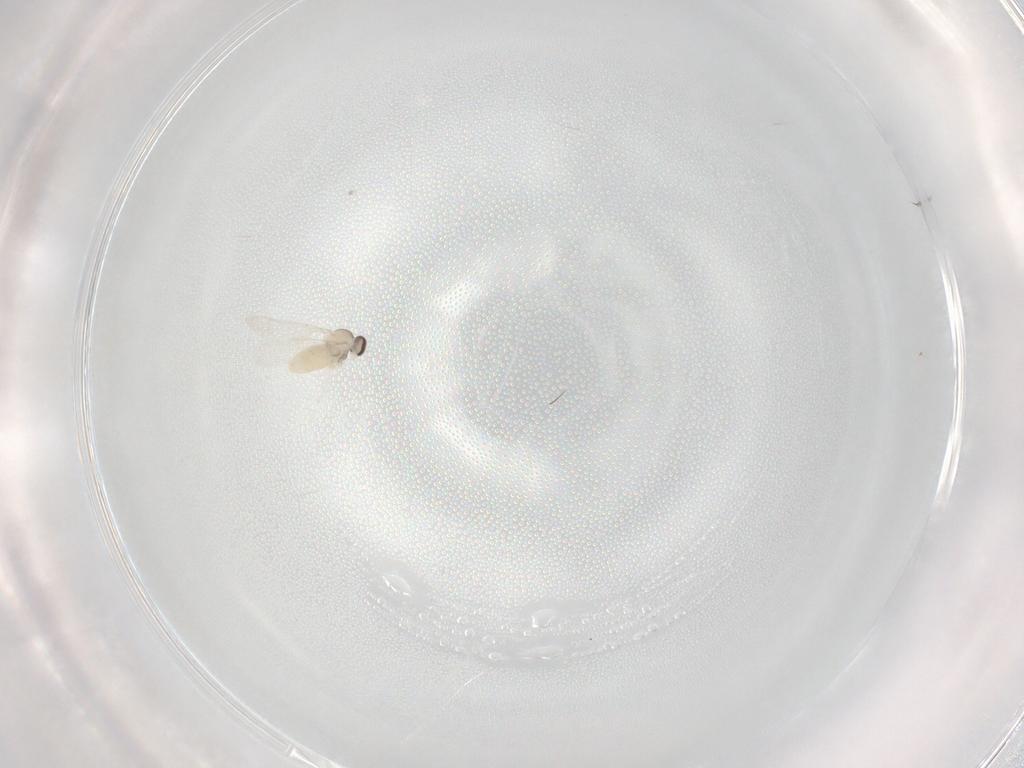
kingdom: Animalia
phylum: Arthropoda
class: Insecta
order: Diptera
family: Cecidomyiidae
